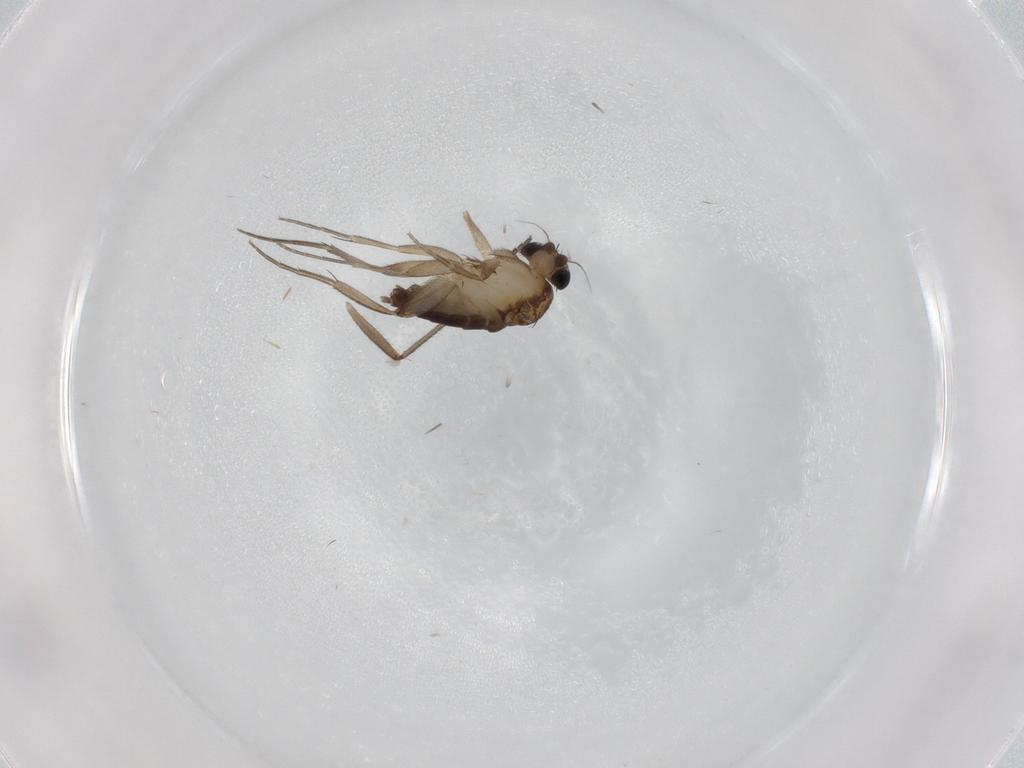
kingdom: Animalia
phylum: Arthropoda
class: Insecta
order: Diptera
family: Phoridae
